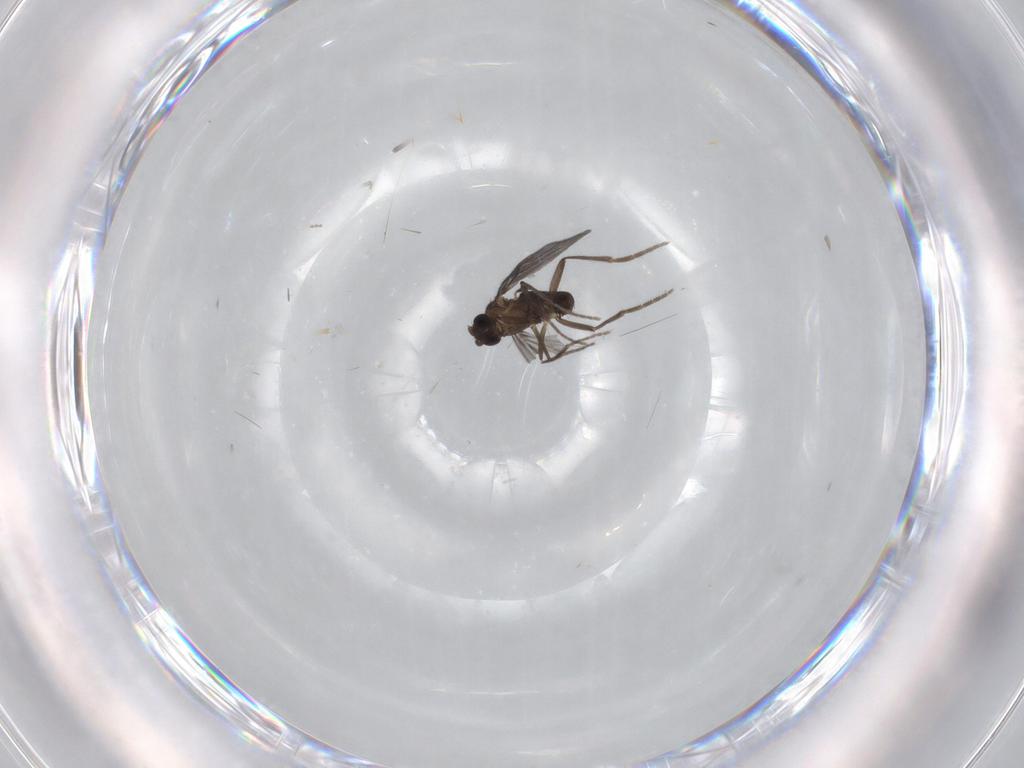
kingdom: Animalia
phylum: Arthropoda
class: Insecta
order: Diptera
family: Phoridae
